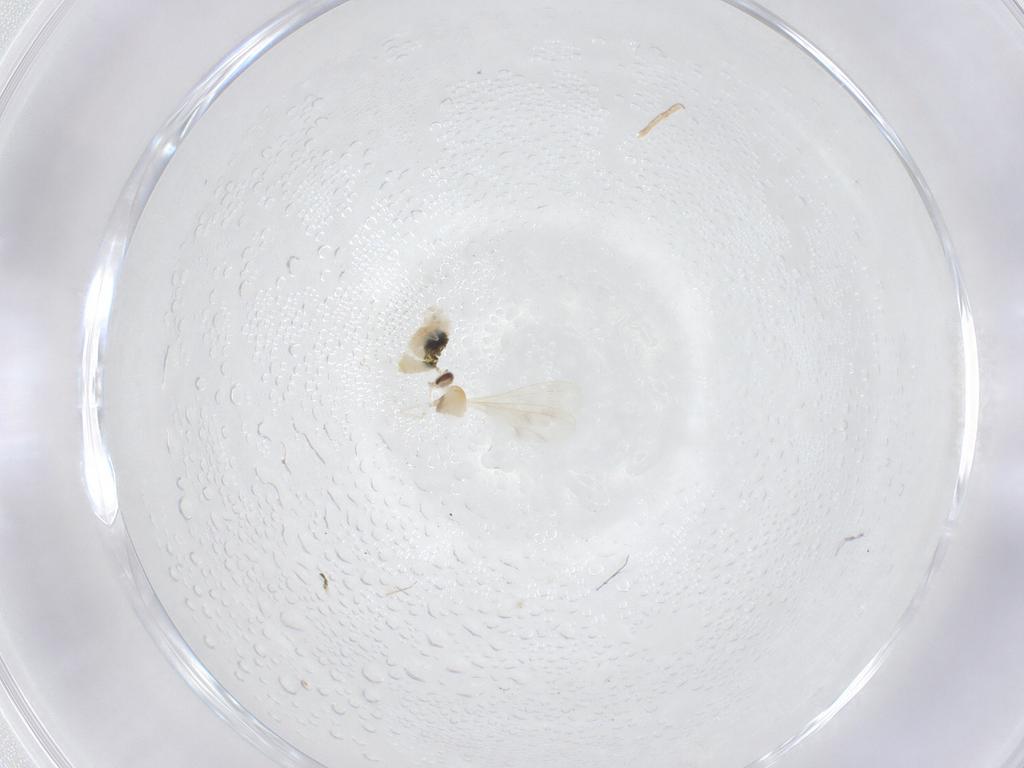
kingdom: Animalia
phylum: Arthropoda
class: Insecta
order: Diptera
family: Cecidomyiidae
